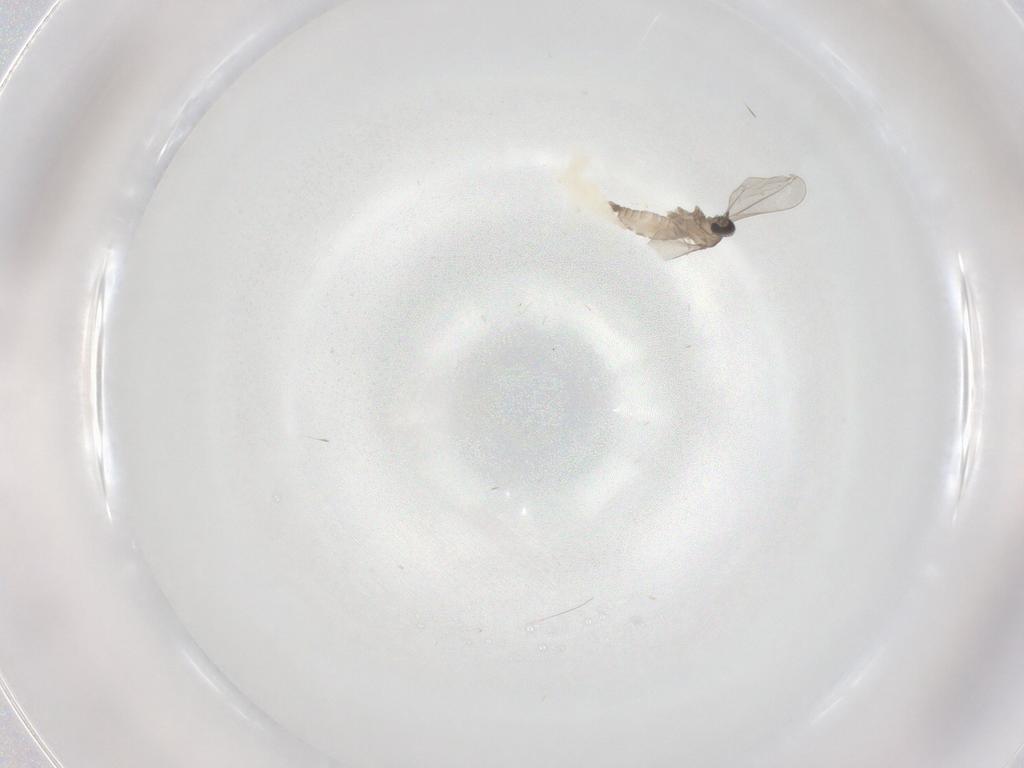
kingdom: Animalia
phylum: Arthropoda
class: Insecta
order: Diptera
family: Cecidomyiidae
